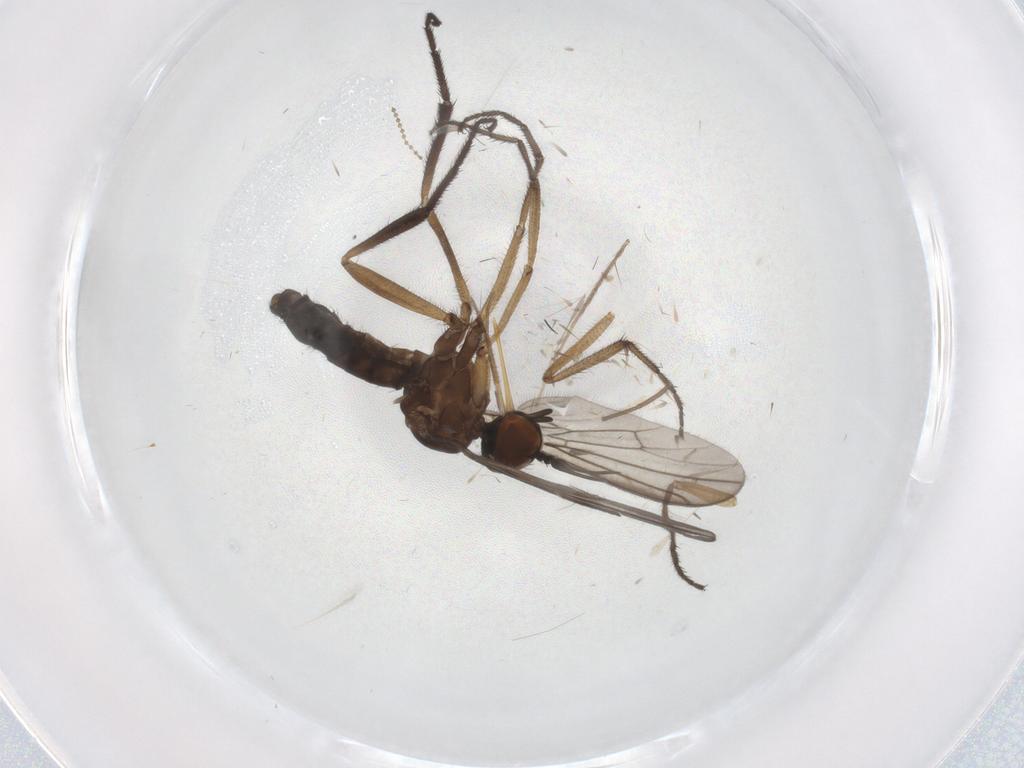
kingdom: Animalia
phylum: Arthropoda
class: Insecta
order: Diptera
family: Empididae
